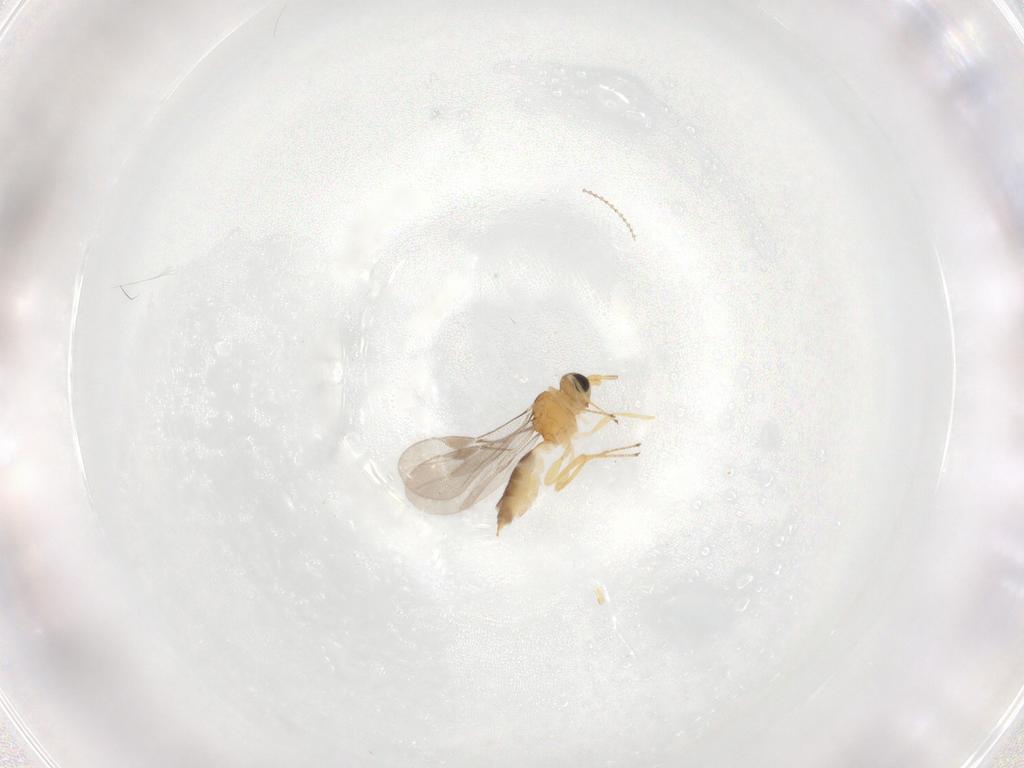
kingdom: Animalia
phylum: Arthropoda
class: Insecta
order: Hymenoptera
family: Braconidae
